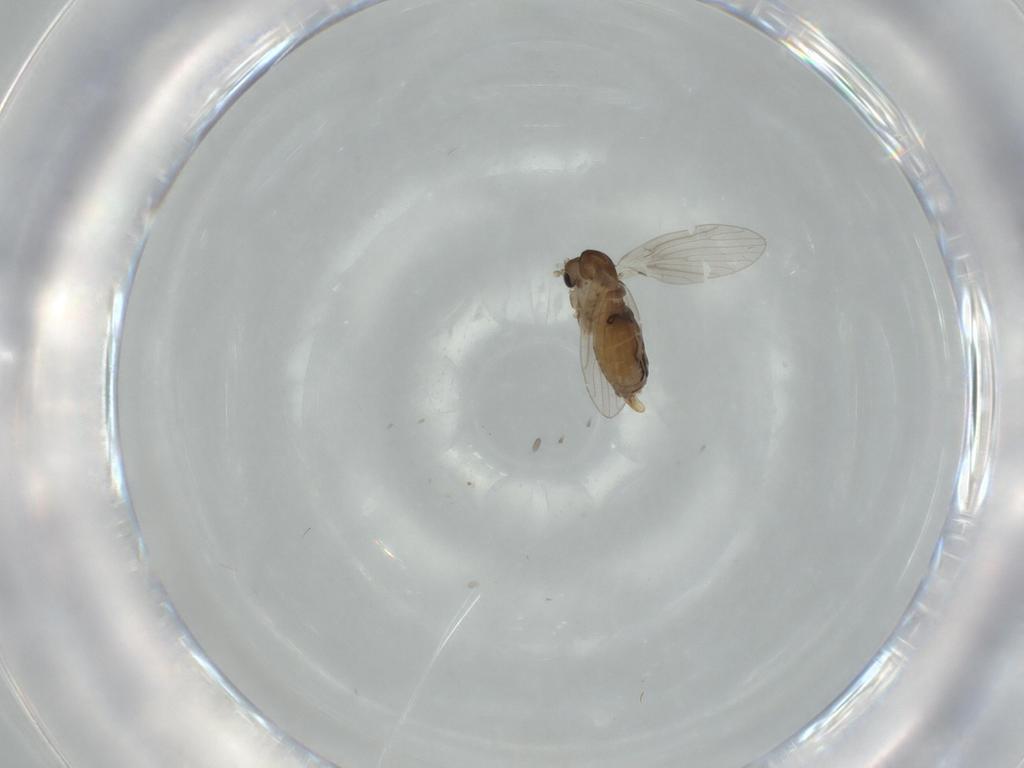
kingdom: Animalia
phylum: Arthropoda
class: Insecta
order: Diptera
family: Psychodidae
